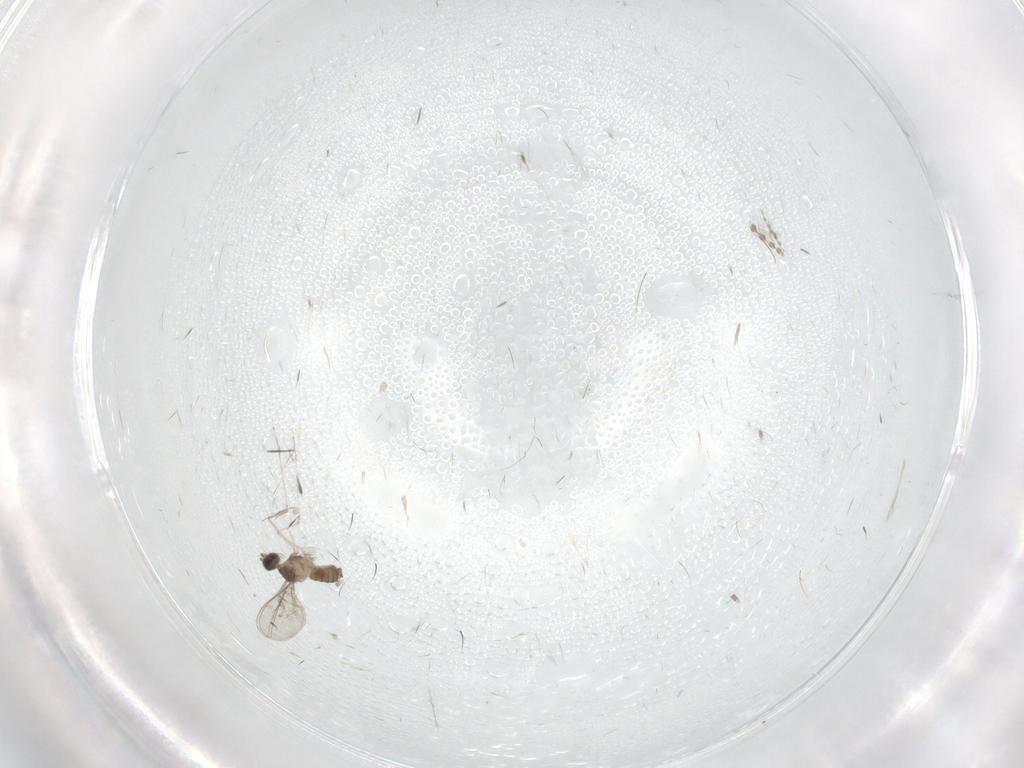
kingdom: Animalia
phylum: Arthropoda
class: Insecta
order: Diptera
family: Cecidomyiidae
